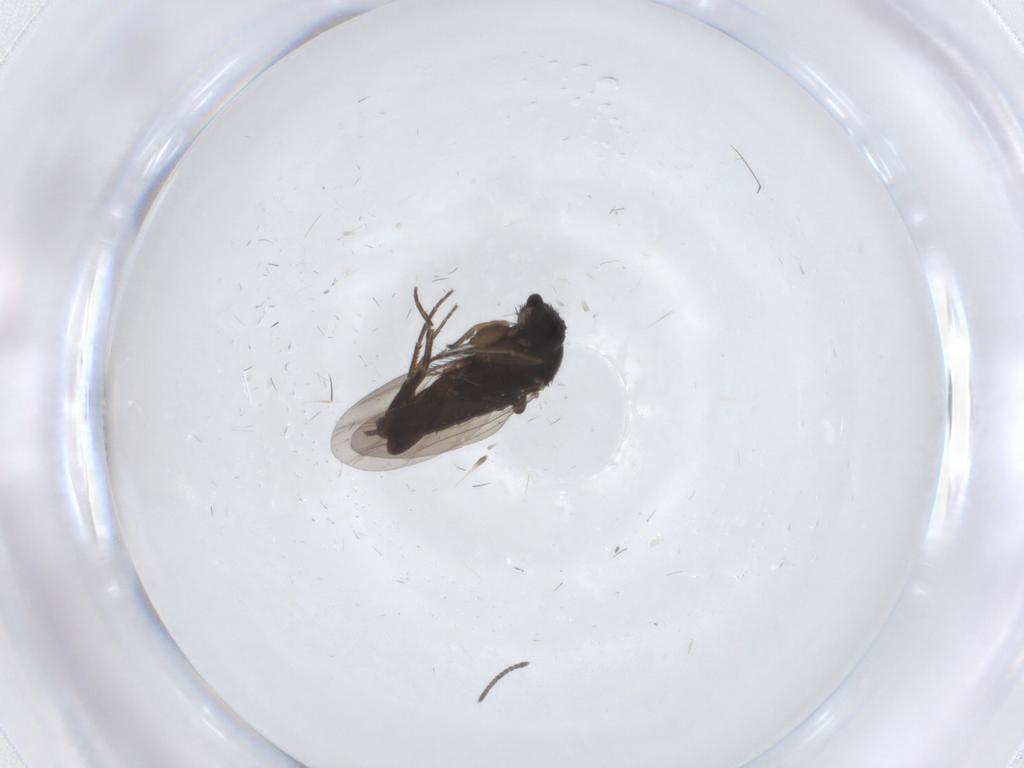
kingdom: Animalia
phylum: Arthropoda
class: Insecta
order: Diptera
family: Phoridae
